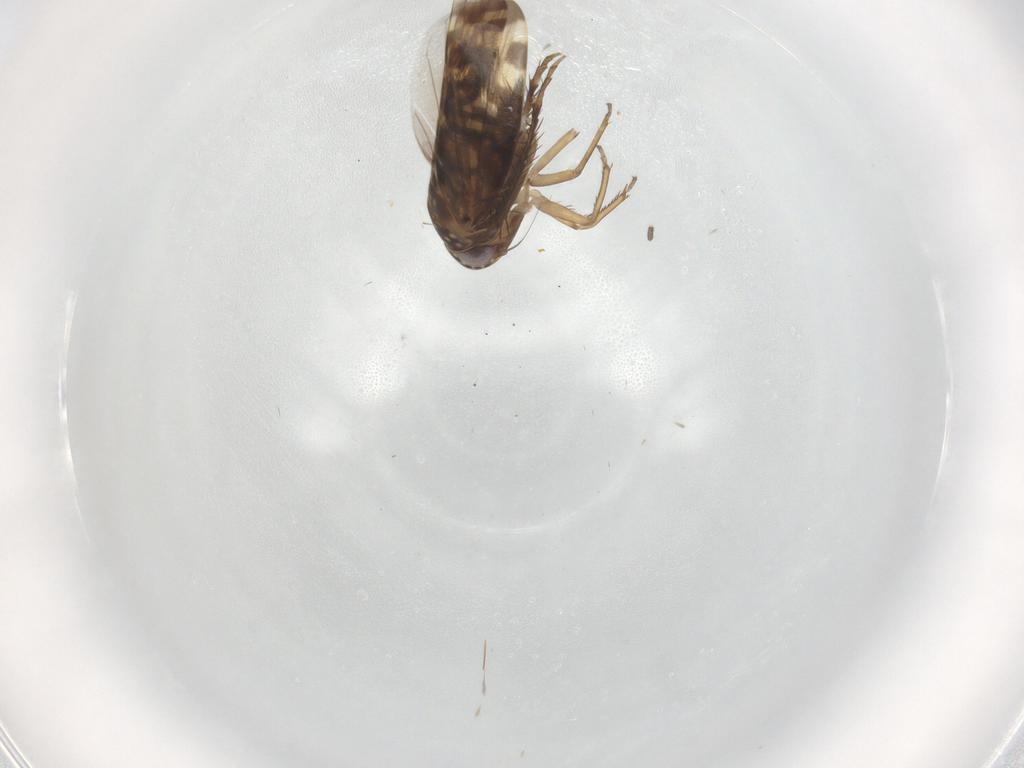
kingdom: Animalia
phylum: Arthropoda
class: Insecta
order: Hemiptera
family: Cicadellidae
